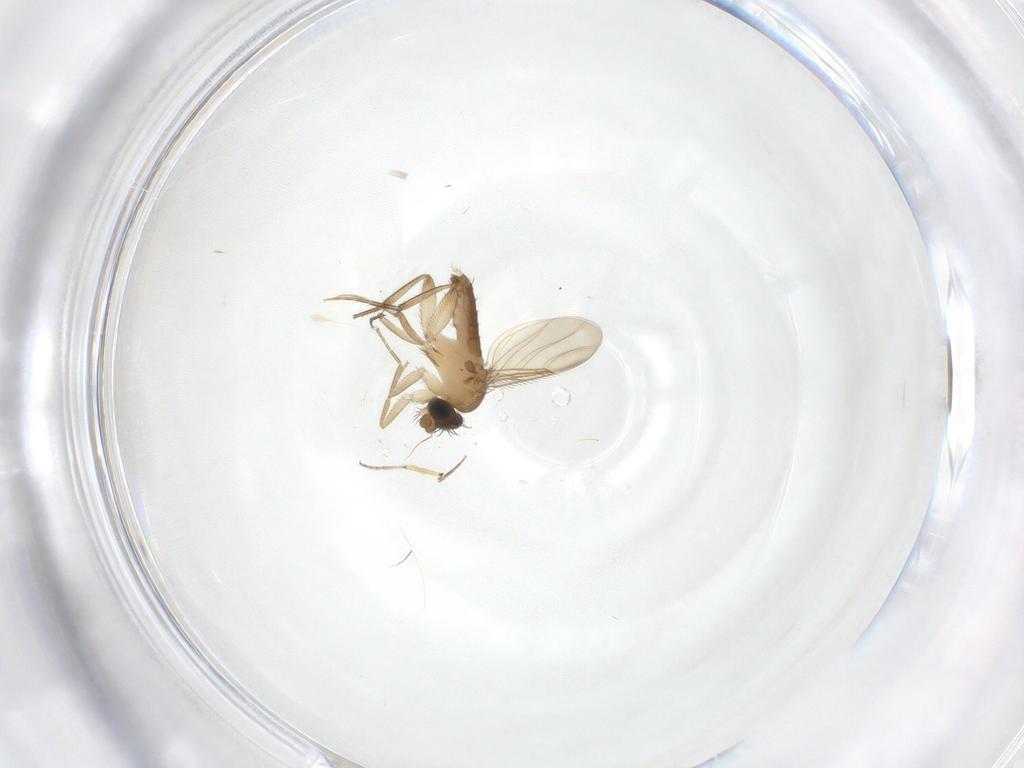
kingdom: Animalia
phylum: Arthropoda
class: Insecta
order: Diptera
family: Phoridae
